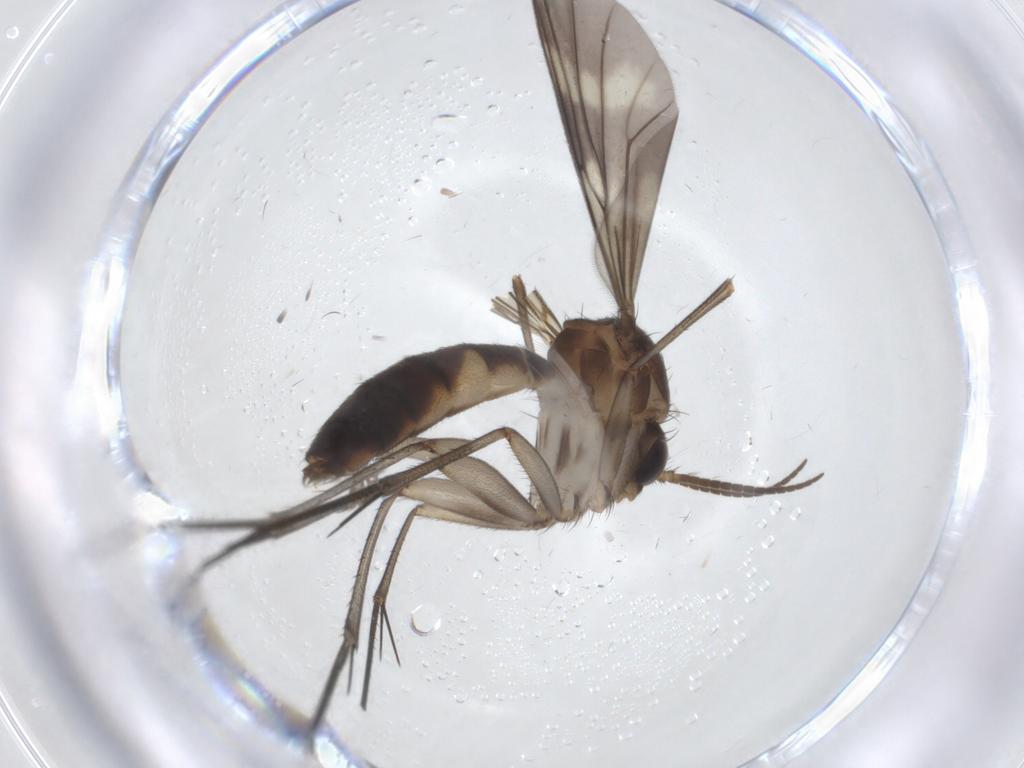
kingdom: Animalia
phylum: Arthropoda
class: Insecta
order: Diptera
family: Mycetophilidae
